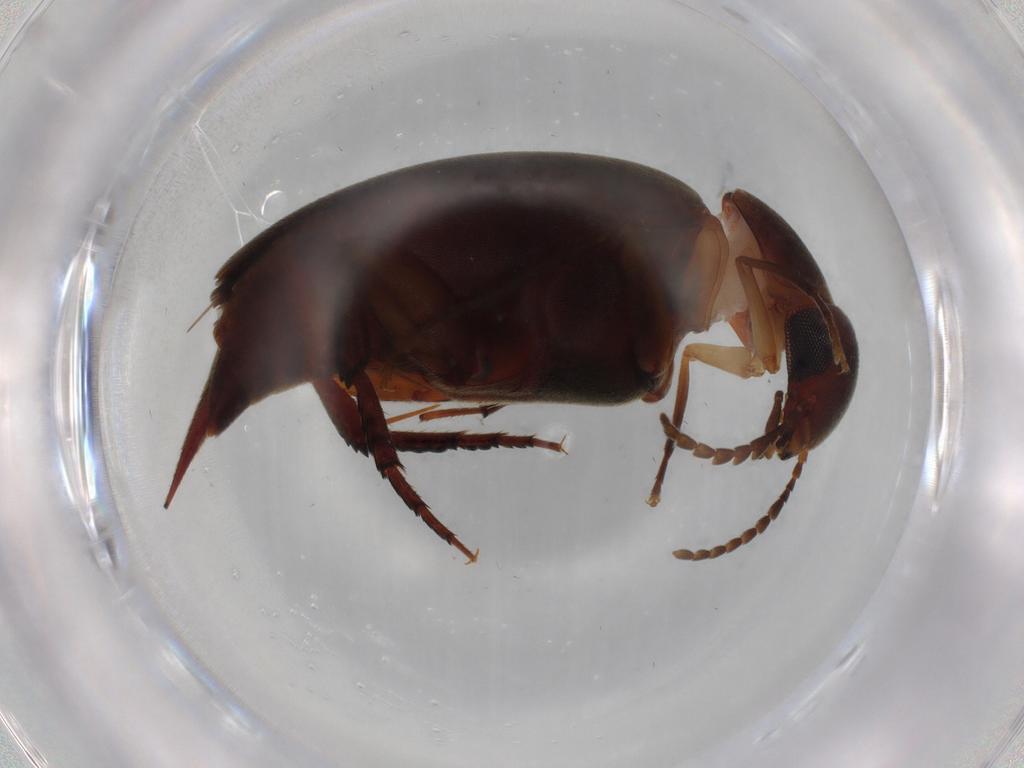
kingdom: Animalia
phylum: Arthropoda
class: Insecta
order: Coleoptera
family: Mordellidae
